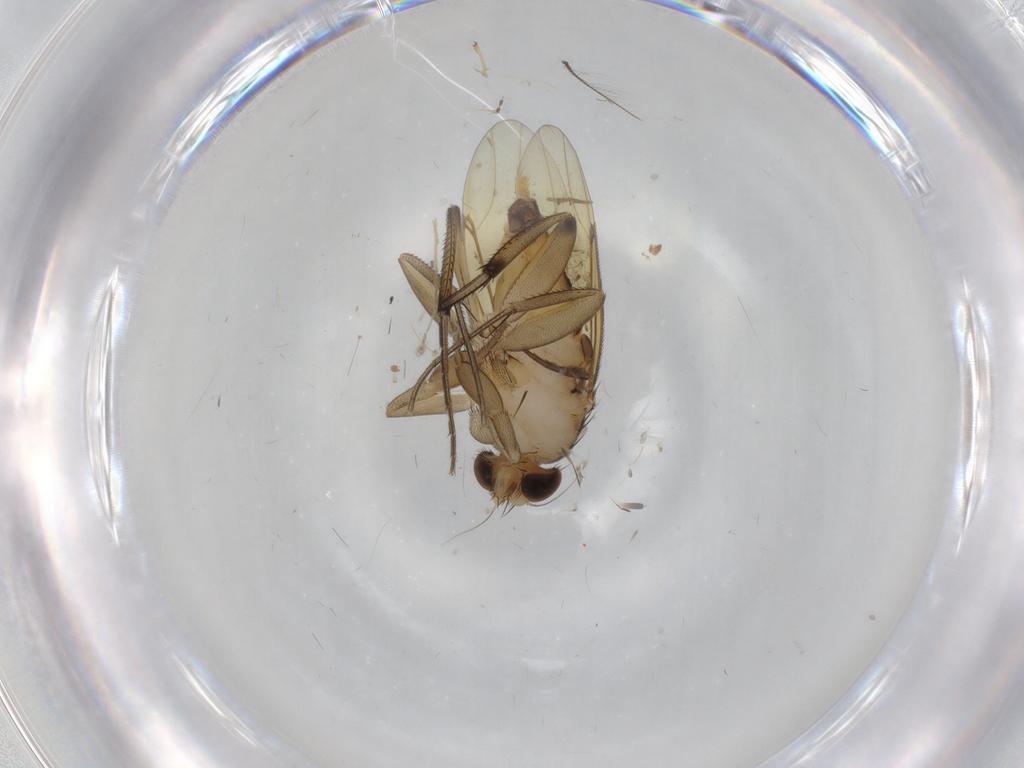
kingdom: Animalia
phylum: Arthropoda
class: Insecta
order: Diptera
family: Phoridae
